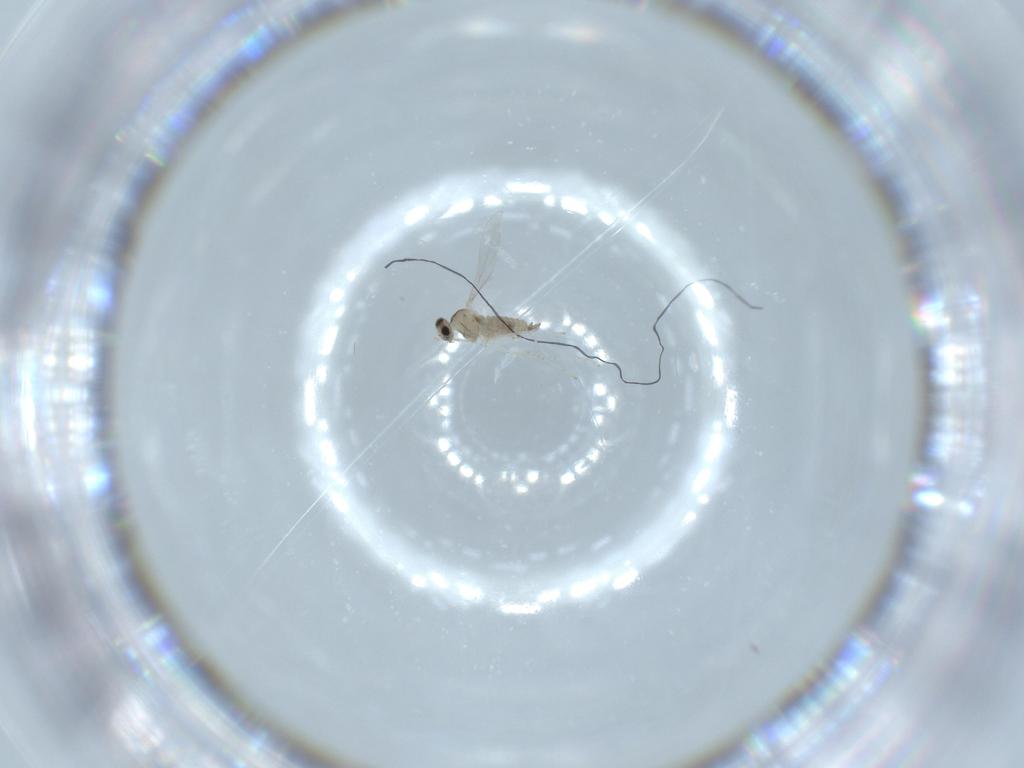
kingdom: Animalia
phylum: Arthropoda
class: Insecta
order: Diptera
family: Cecidomyiidae
